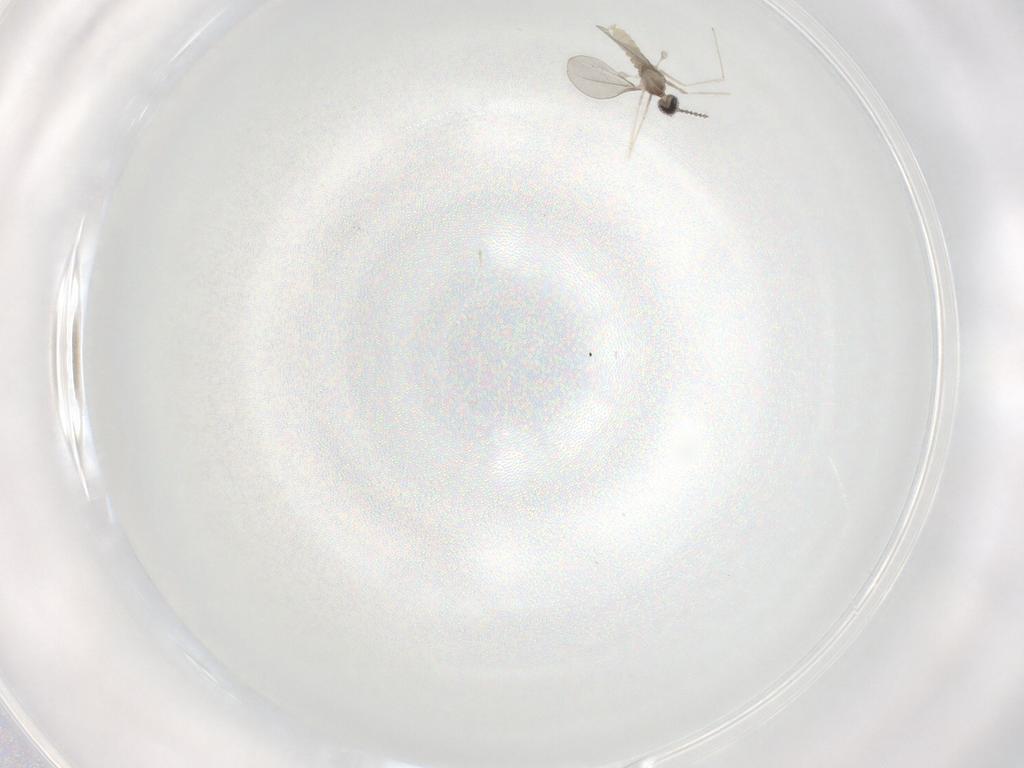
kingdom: Animalia
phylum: Arthropoda
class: Insecta
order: Diptera
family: Cecidomyiidae
